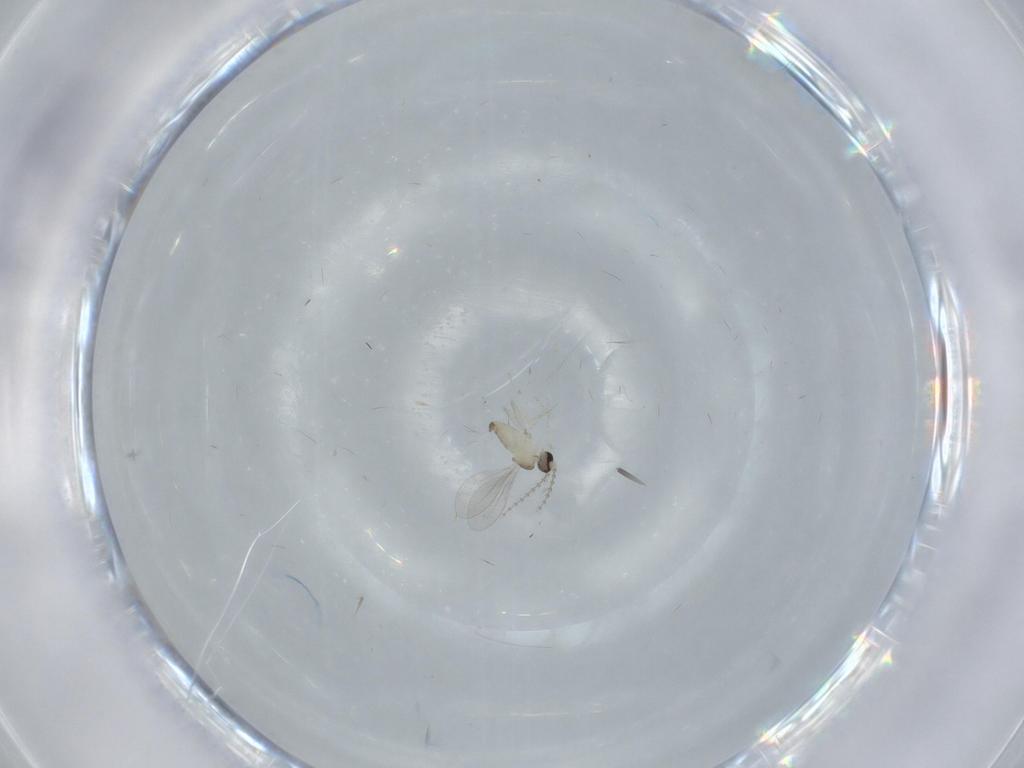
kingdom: Animalia
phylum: Arthropoda
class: Insecta
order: Diptera
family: Cecidomyiidae
